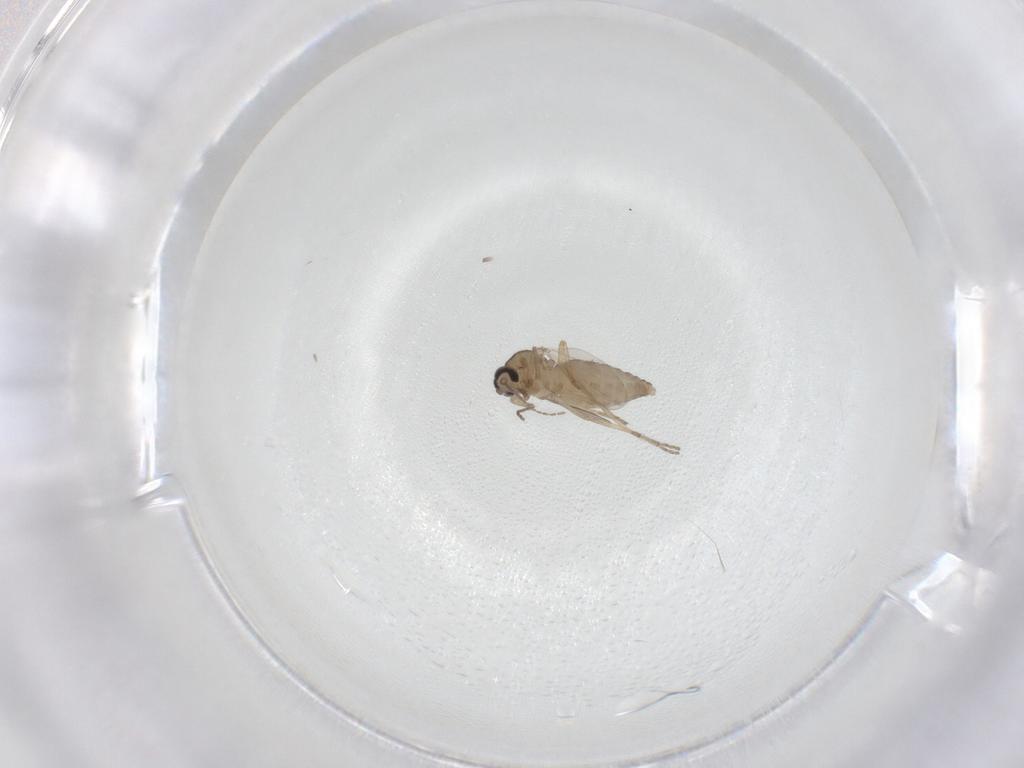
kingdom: Animalia
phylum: Arthropoda
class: Insecta
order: Diptera
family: Ceratopogonidae
